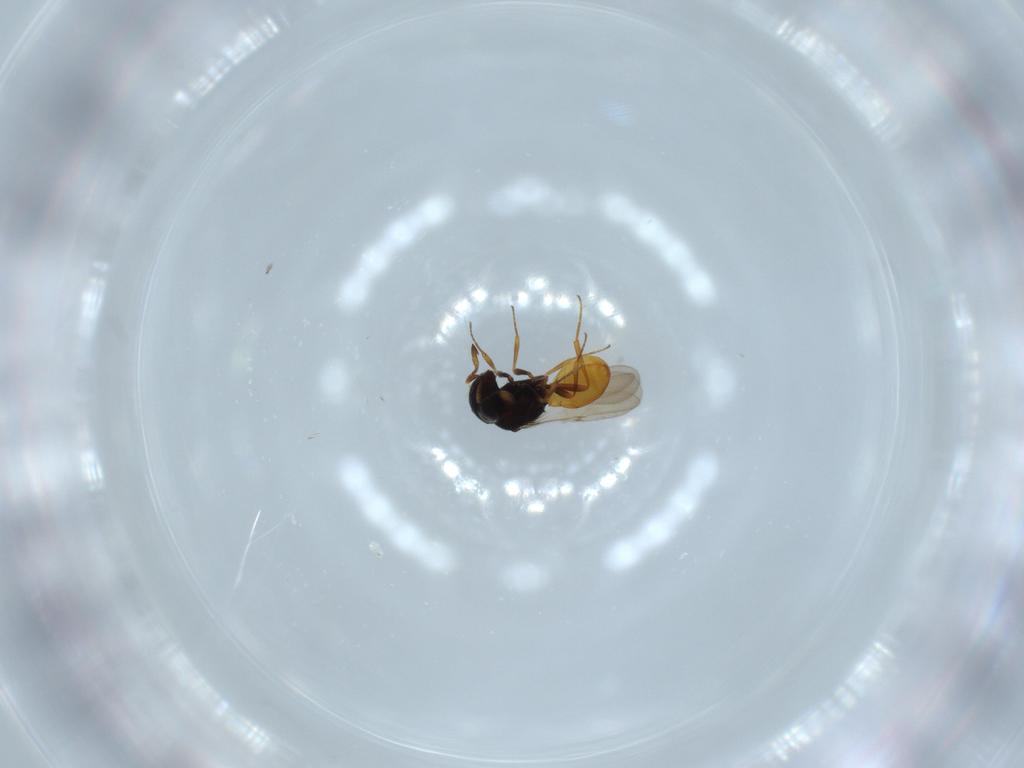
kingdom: Animalia
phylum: Arthropoda
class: Insecta
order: Hymenoptera
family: Scelionidae
